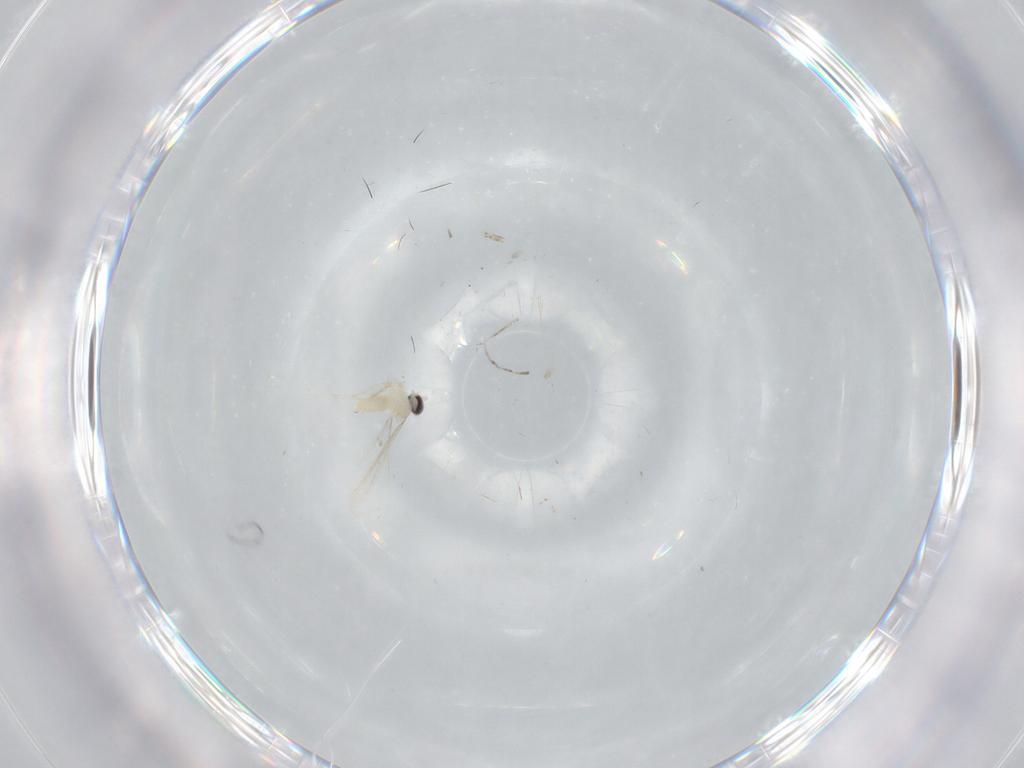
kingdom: Animalia
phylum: Arthropoda
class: Insecta
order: Diptera
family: Cecidomyiidae
